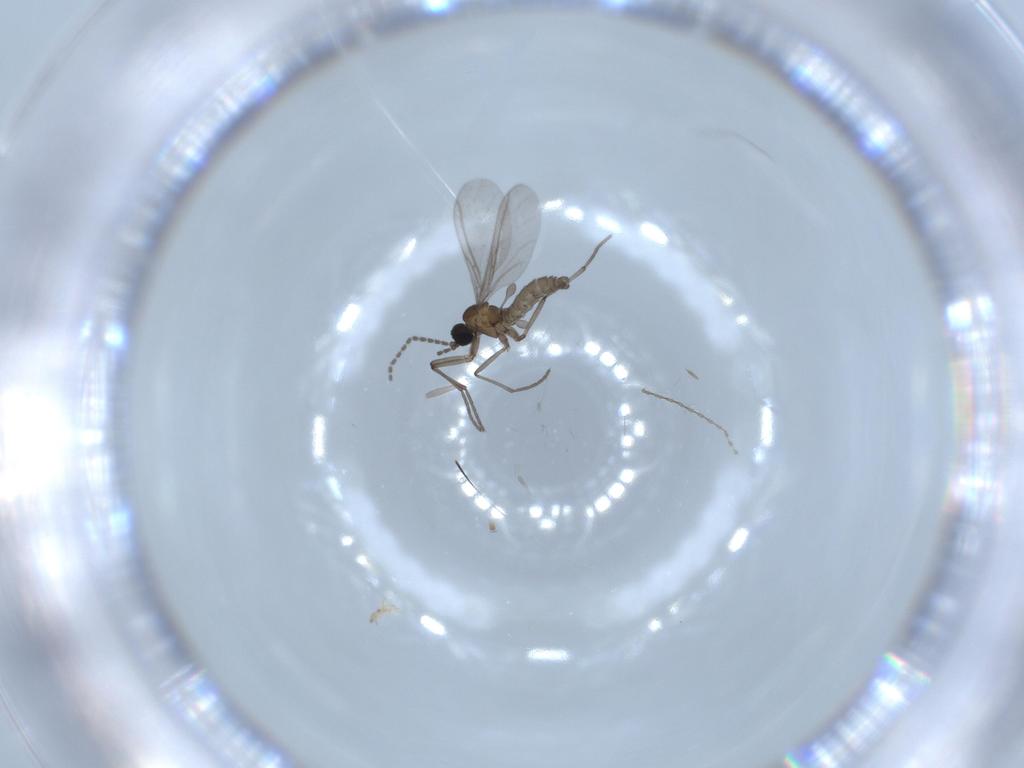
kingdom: Animalia
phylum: Arthropoda
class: Insecta
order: Diptera
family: Sciaridae
